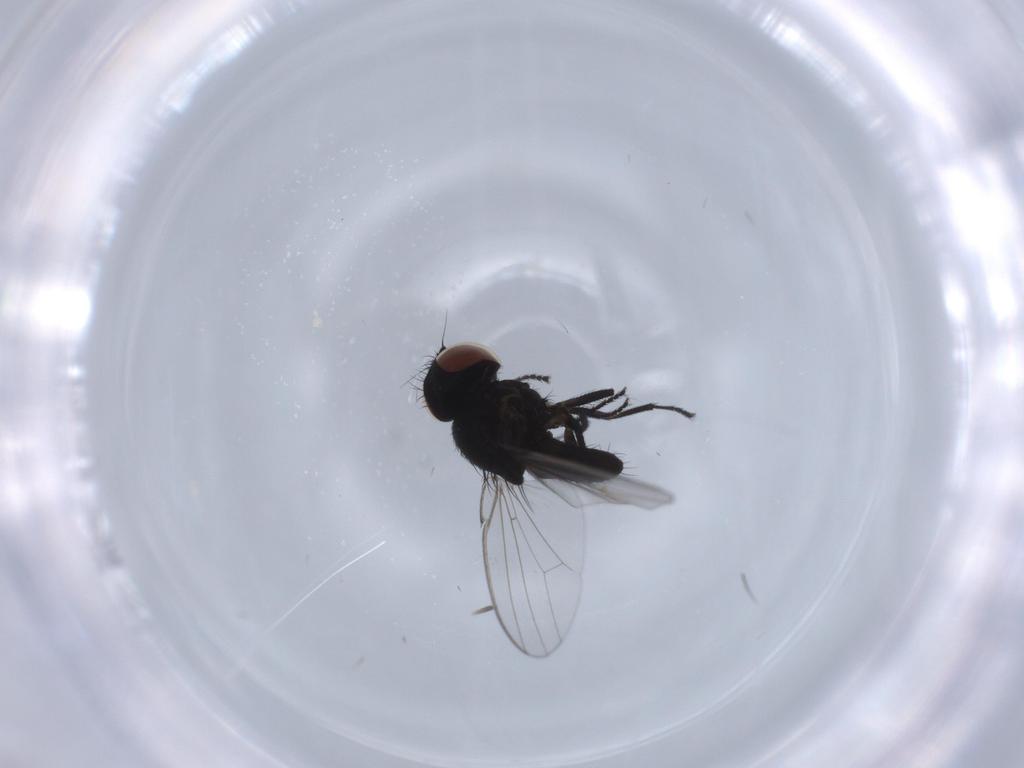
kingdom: Animalia
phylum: Arthropoda
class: Insecta
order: Diptera
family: Milichiidae
